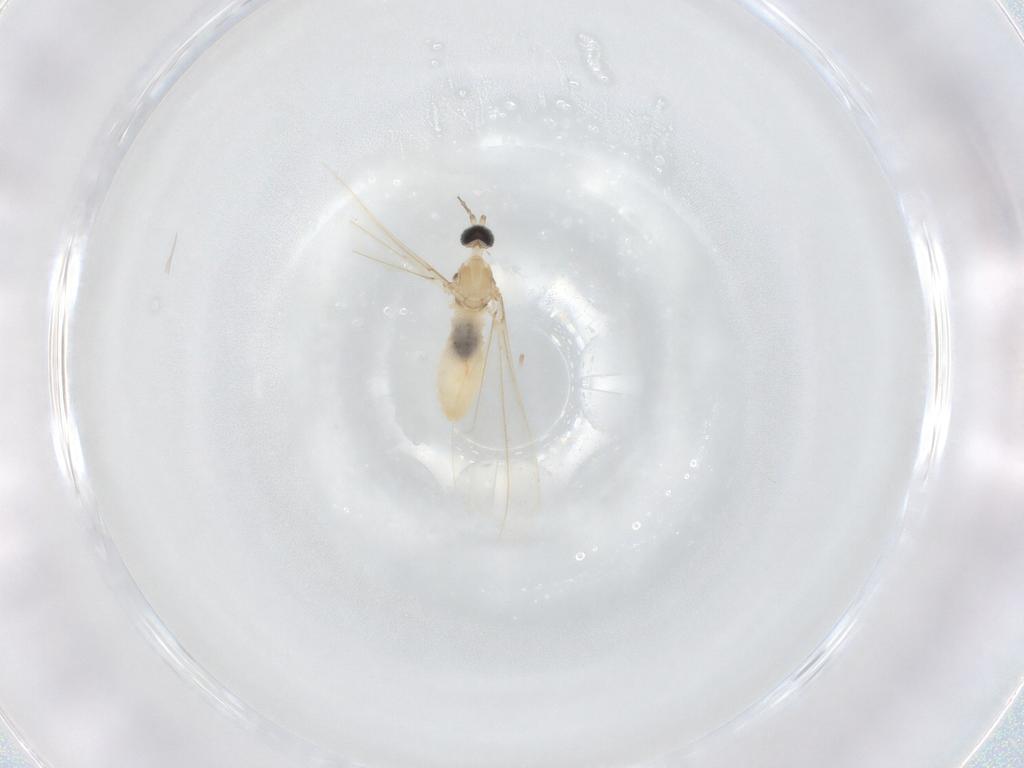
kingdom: Animalia
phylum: Arthropoda
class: Insecta
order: Diptera
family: Cecidomyiidae
